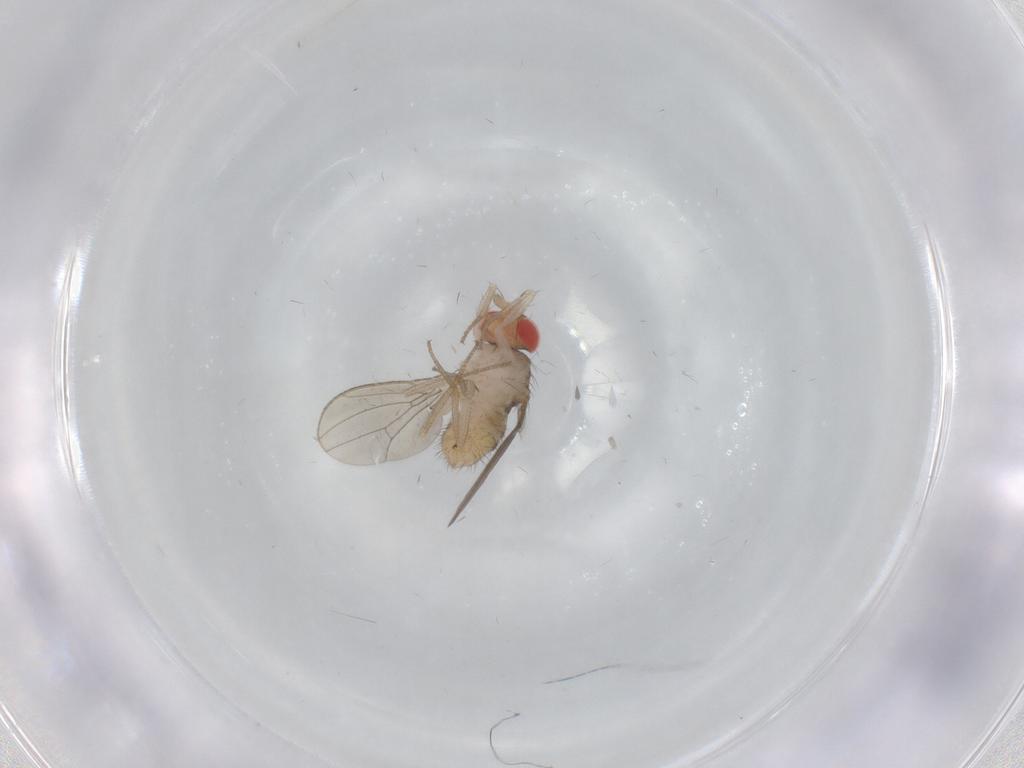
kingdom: Animalia
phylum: Arthropoda
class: Insecta
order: Diptera
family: Drosophilidae
